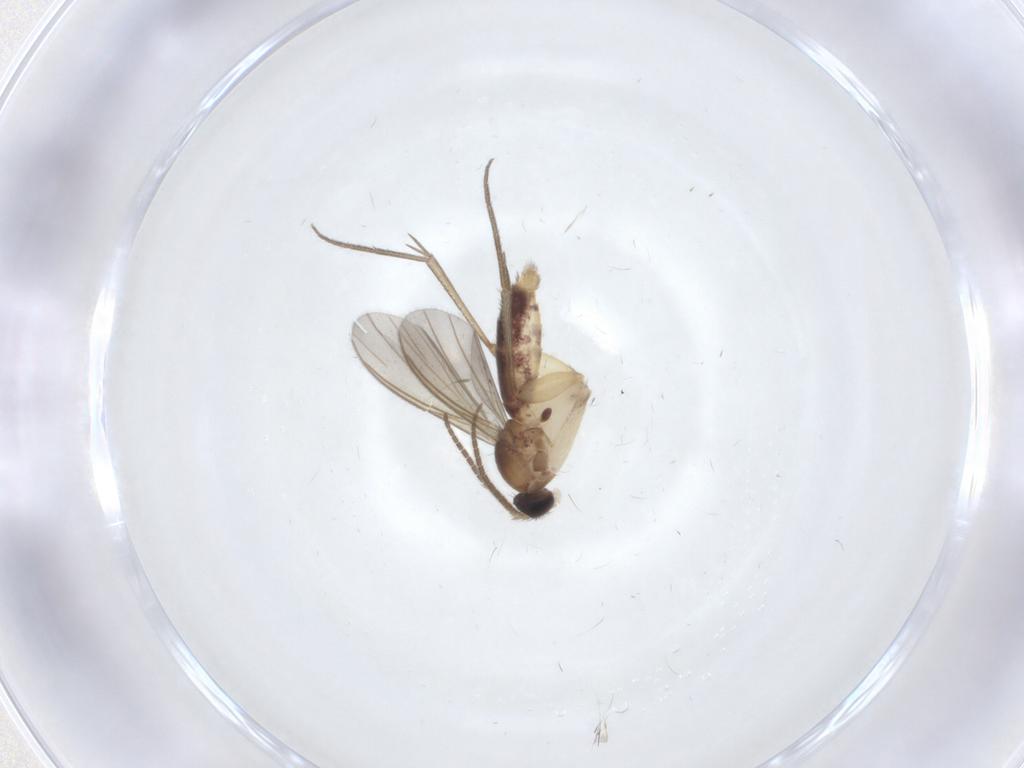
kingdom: Animalia
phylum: Arthropoda
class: Insecta
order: Diptera
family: Mycetophilidae
